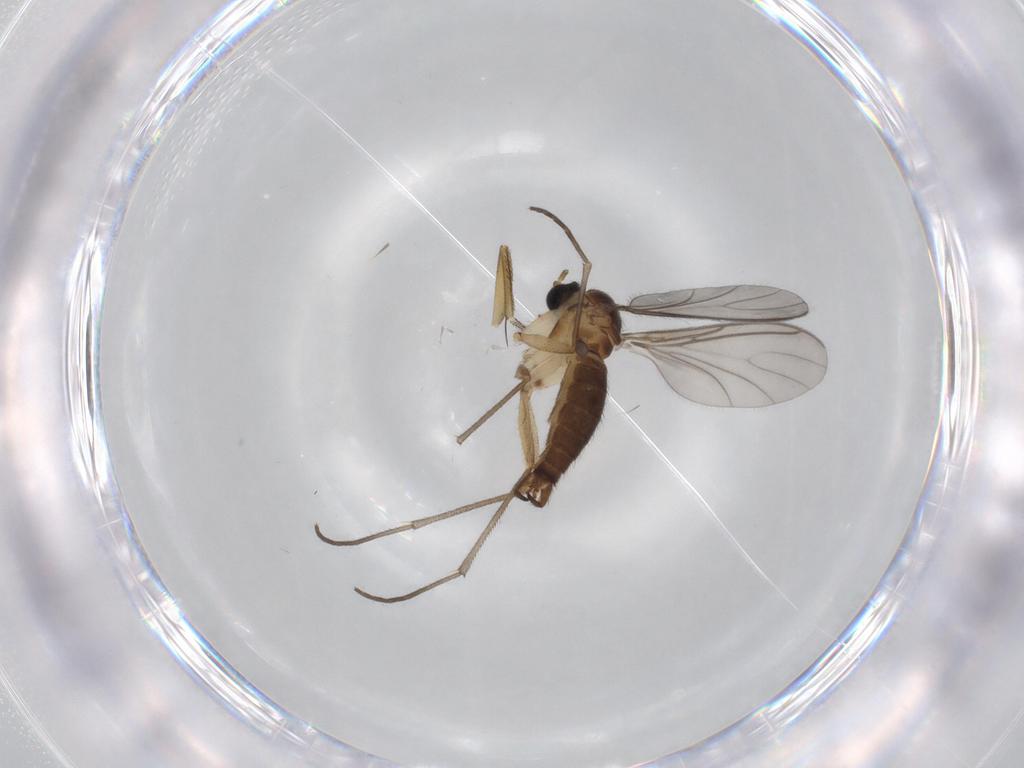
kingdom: Animalia
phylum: Arthropoda
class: Insecta
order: Diptera
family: Phoridae
